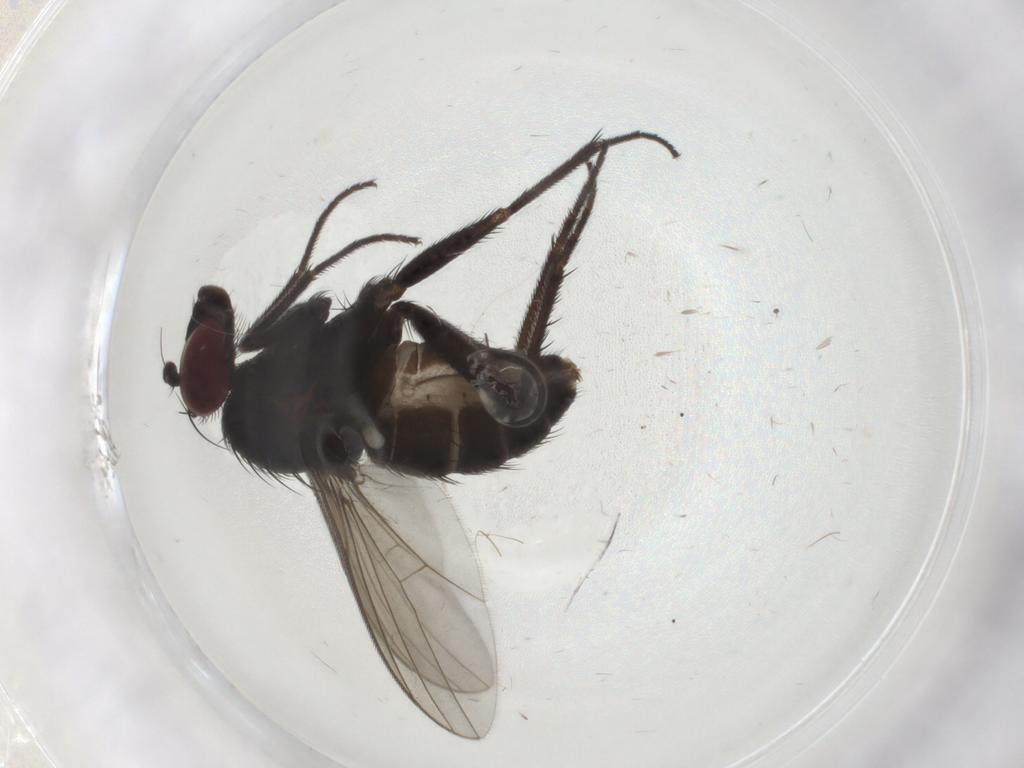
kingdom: Animalia
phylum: Arthropoda
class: Insecta
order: Diptera
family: Dolichopodidae
